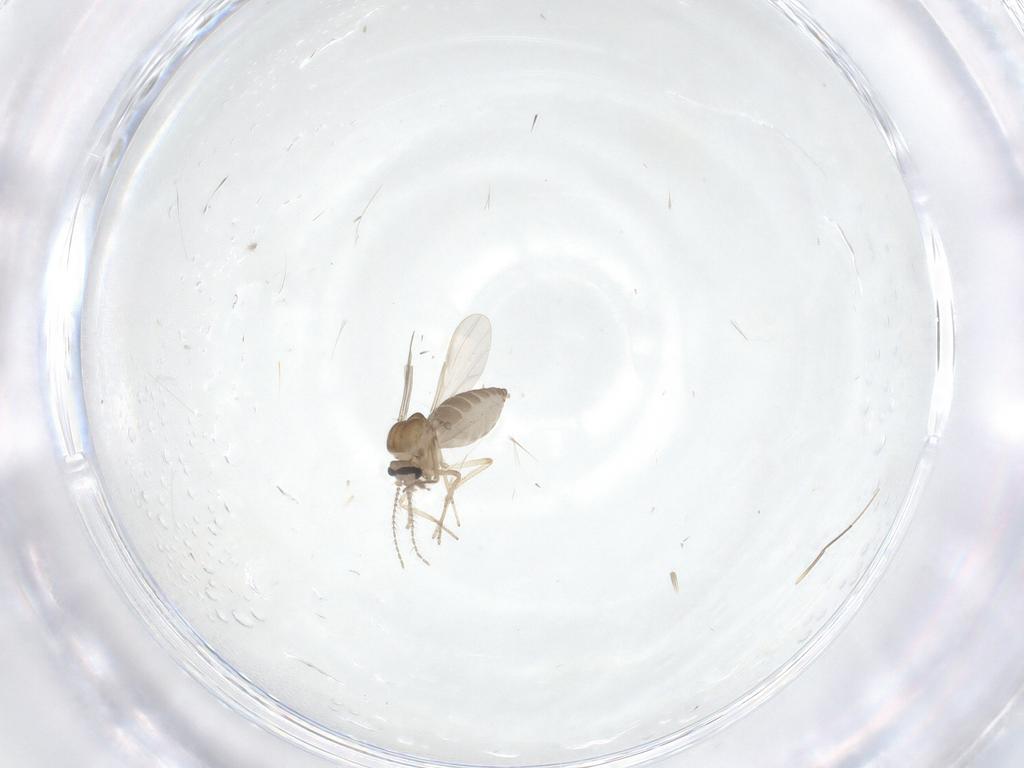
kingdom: Animalia
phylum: Arthropoda
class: Insecta
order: Diptera
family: Ceratopogonidae
